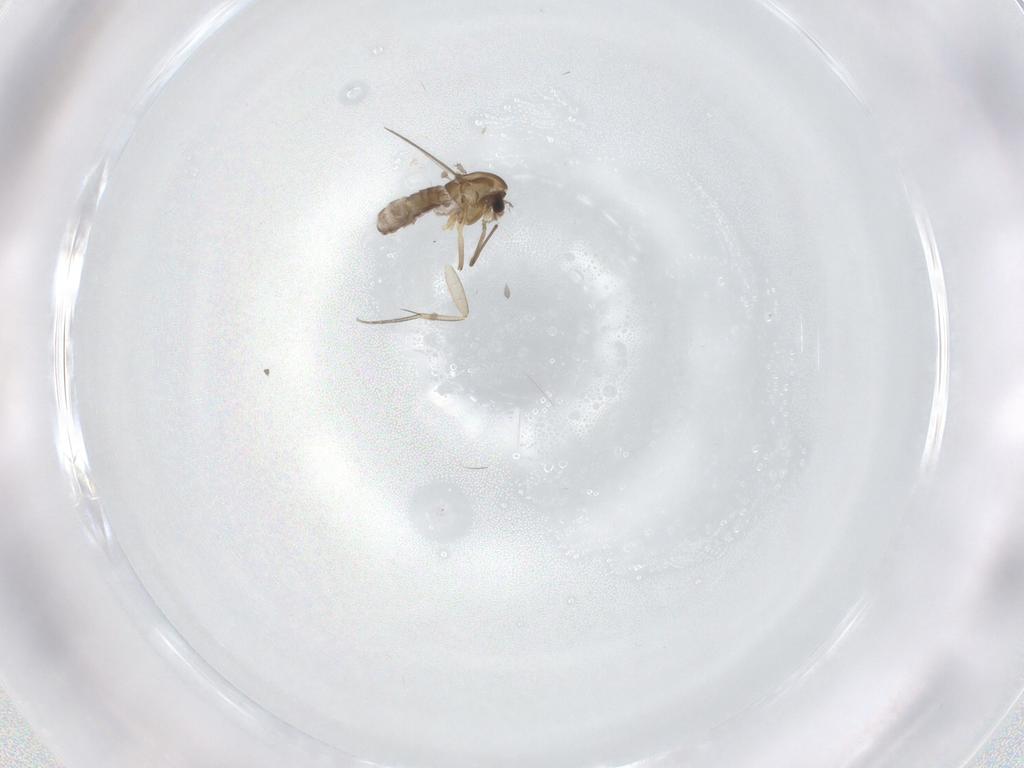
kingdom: Animalia
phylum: Arthropoda
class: Insecta
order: Diptera
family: Chironomidae
